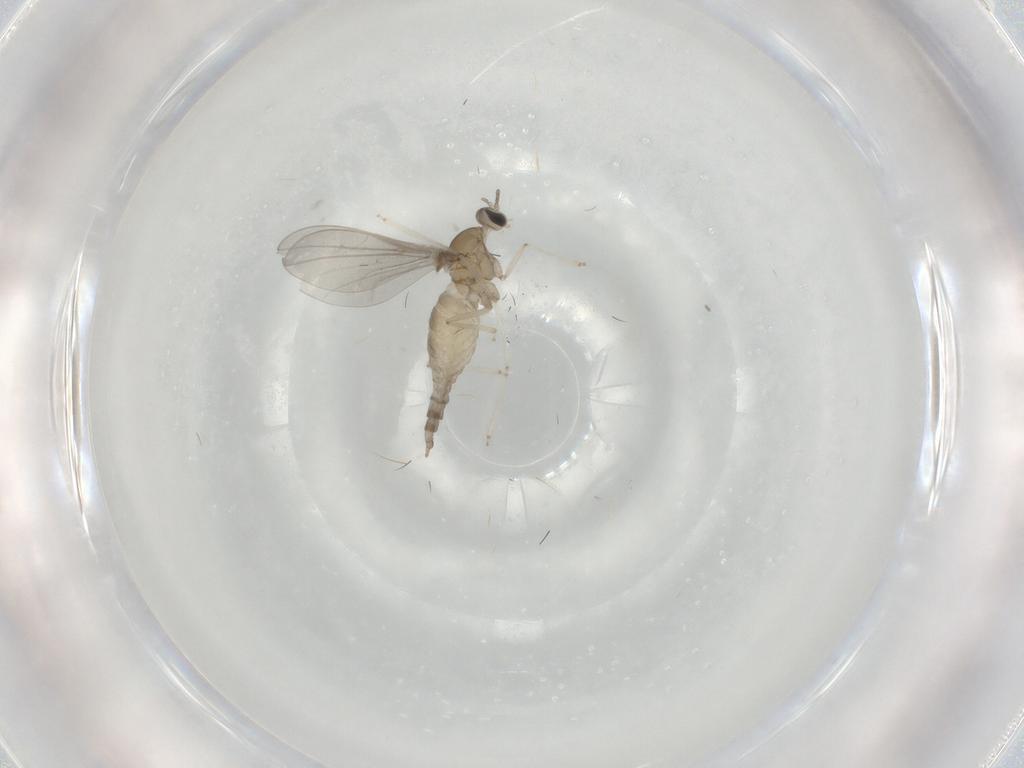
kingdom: Animalia
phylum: Arthropoda
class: Insecta
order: Diptera
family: Cecidomyiidae
